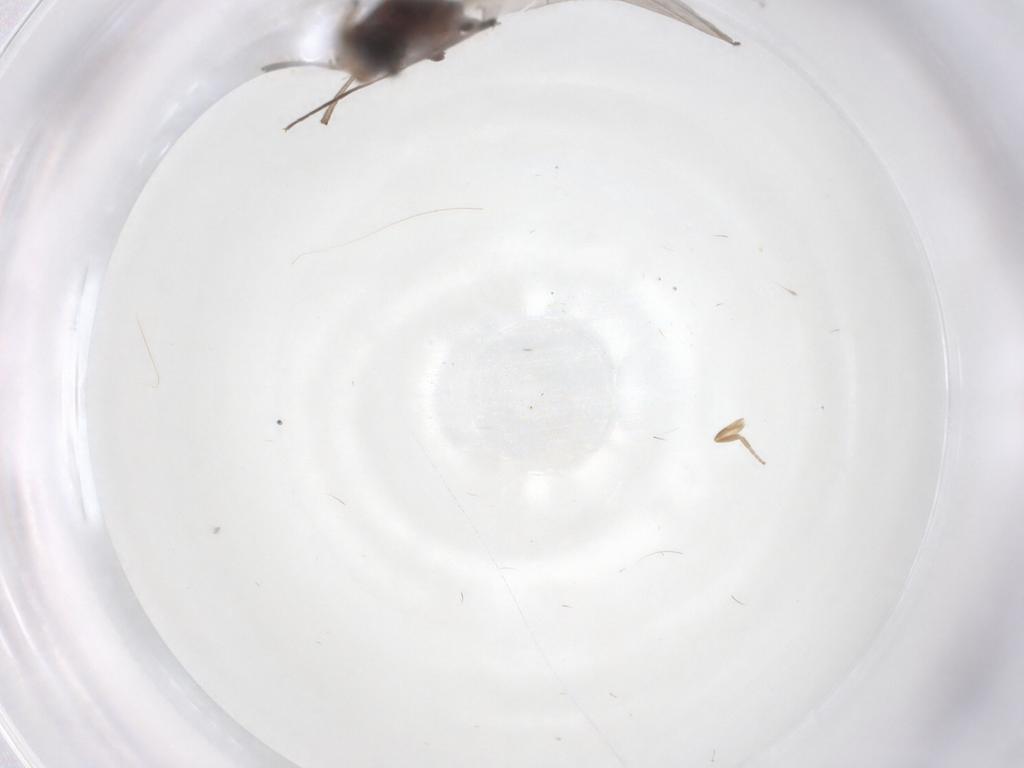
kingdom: Animalia
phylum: Arthropoda
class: Insecta
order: Diptera
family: Sciaridae
